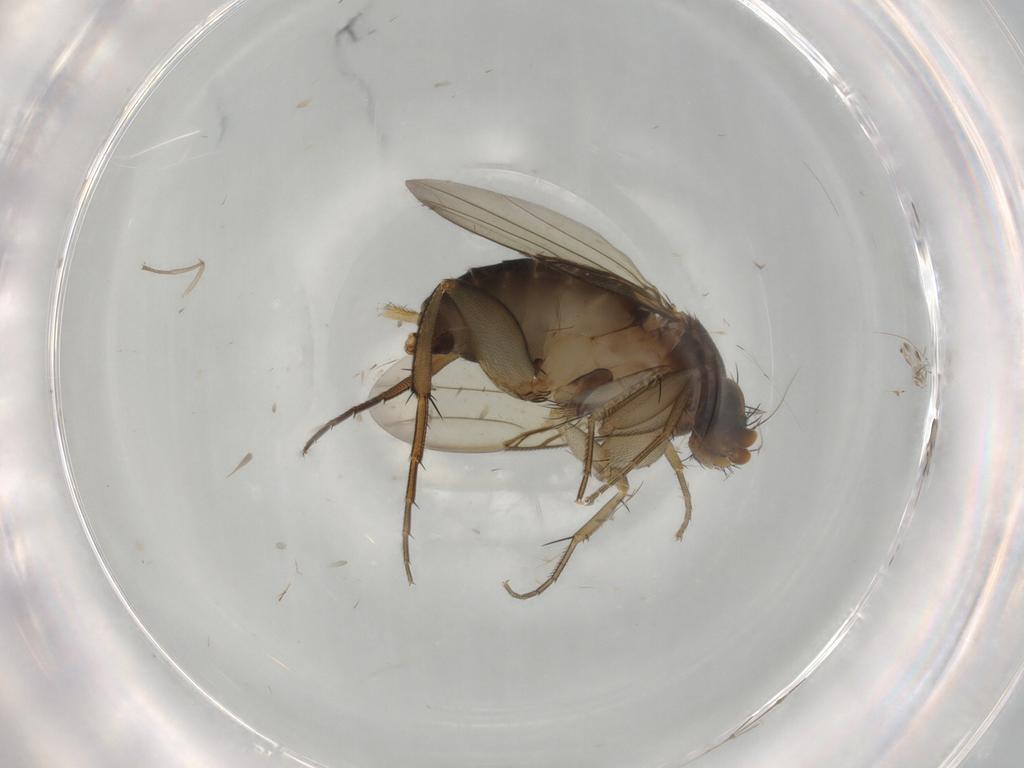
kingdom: Animalia
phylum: Arthropoda
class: Insecta
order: Diptera
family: Phoridae
